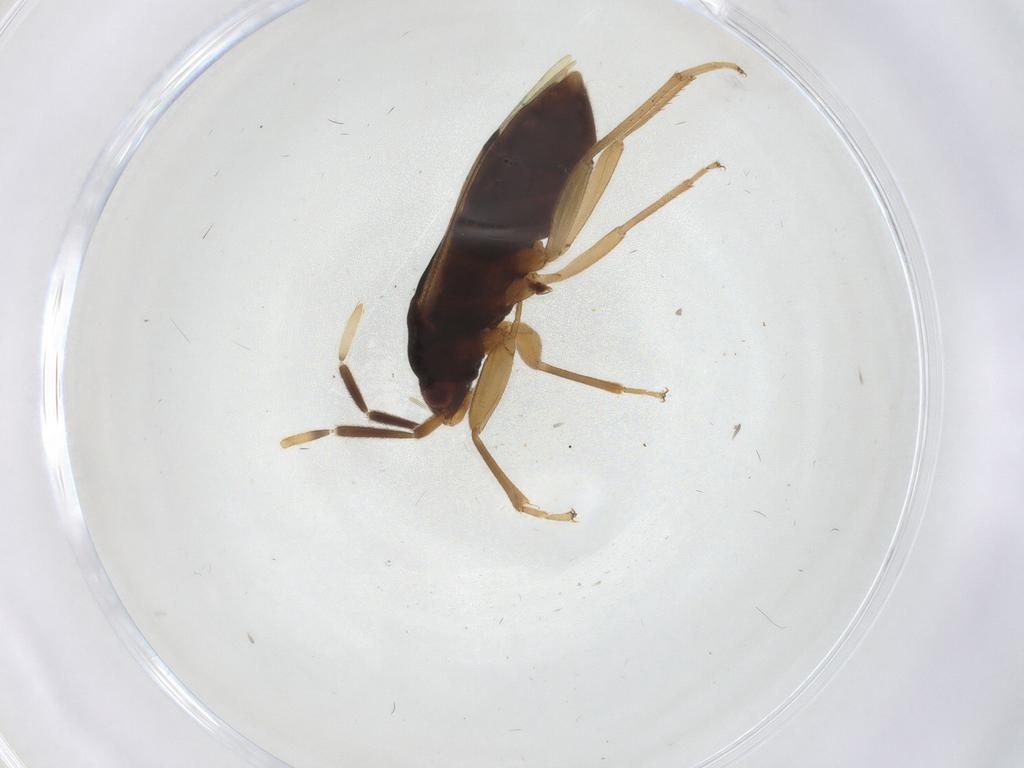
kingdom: Animalia
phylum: Arthropoda
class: Insecta
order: Hemiptera
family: Rhyparochromidae
